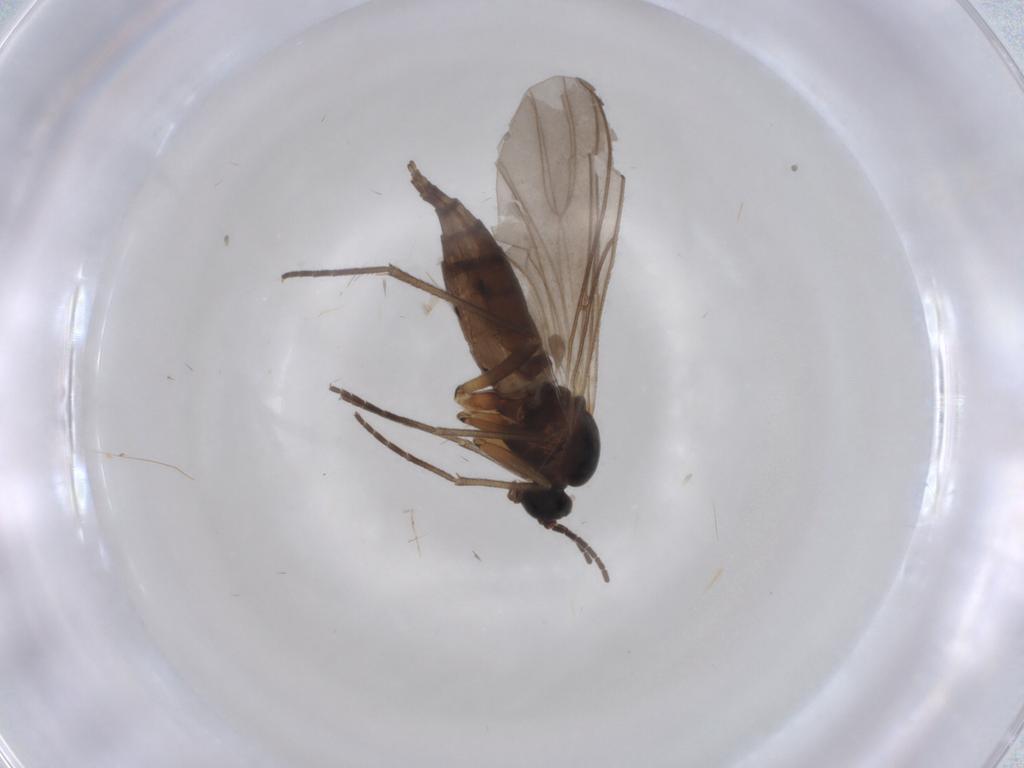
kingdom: Animalia
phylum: Arthropoda
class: Insecta
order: Diptera
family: Sciaridae
